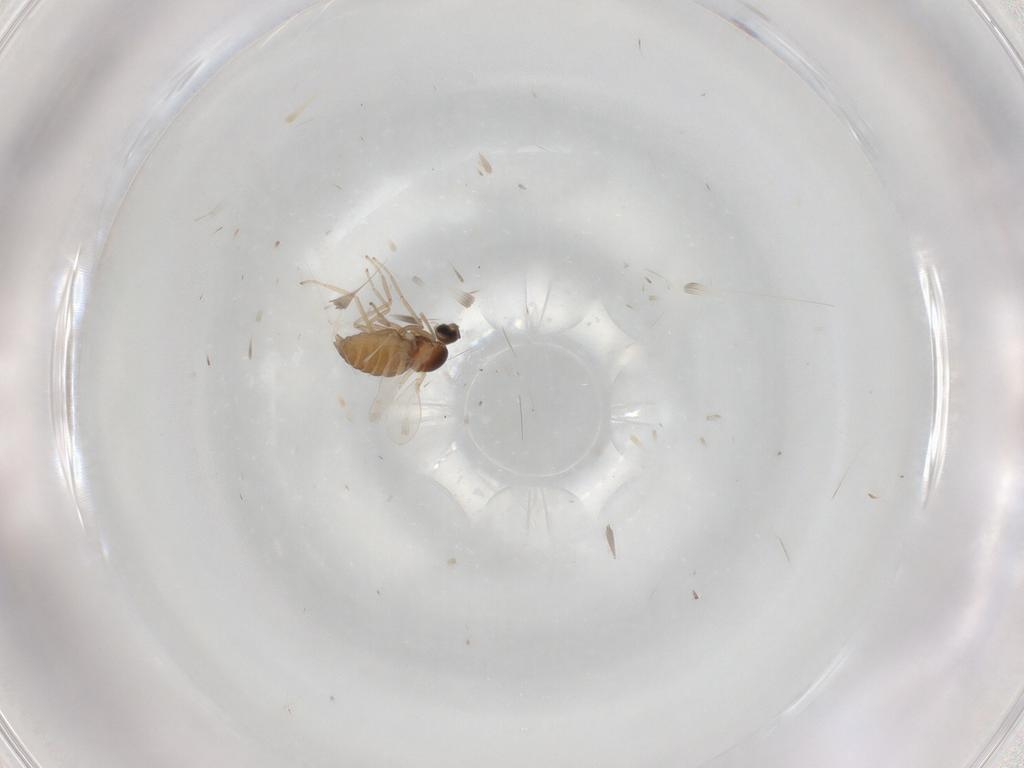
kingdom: Animalia
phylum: Arthropoda
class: Insecta
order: Diptera
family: Cecidomyiidae
